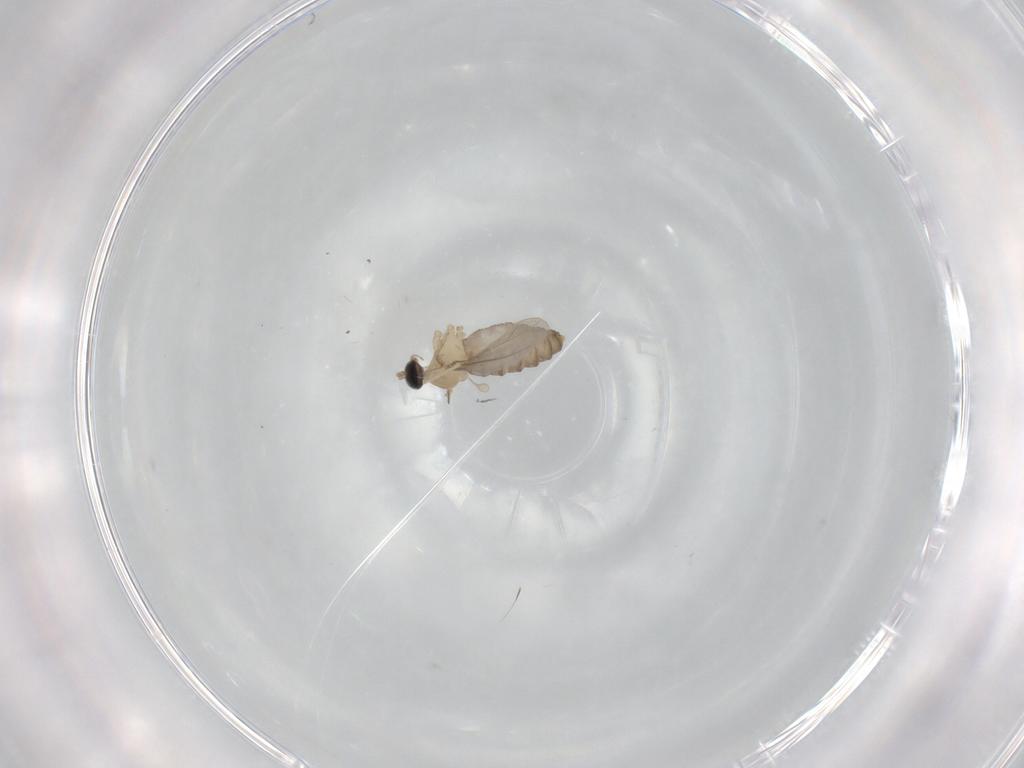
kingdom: Animalia
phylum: Arthropoda
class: Insecta
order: Diptera
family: Cecidomyiidae
